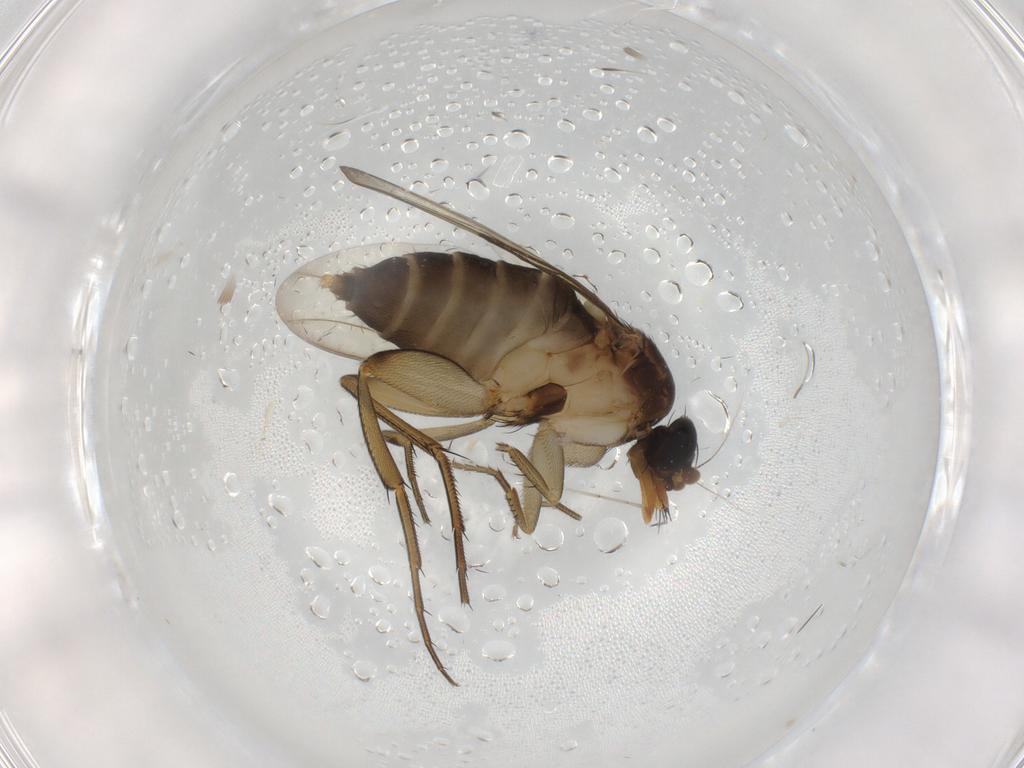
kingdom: Animalia
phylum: Arthropoda
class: Insecta
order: Diptera
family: Phoridae
